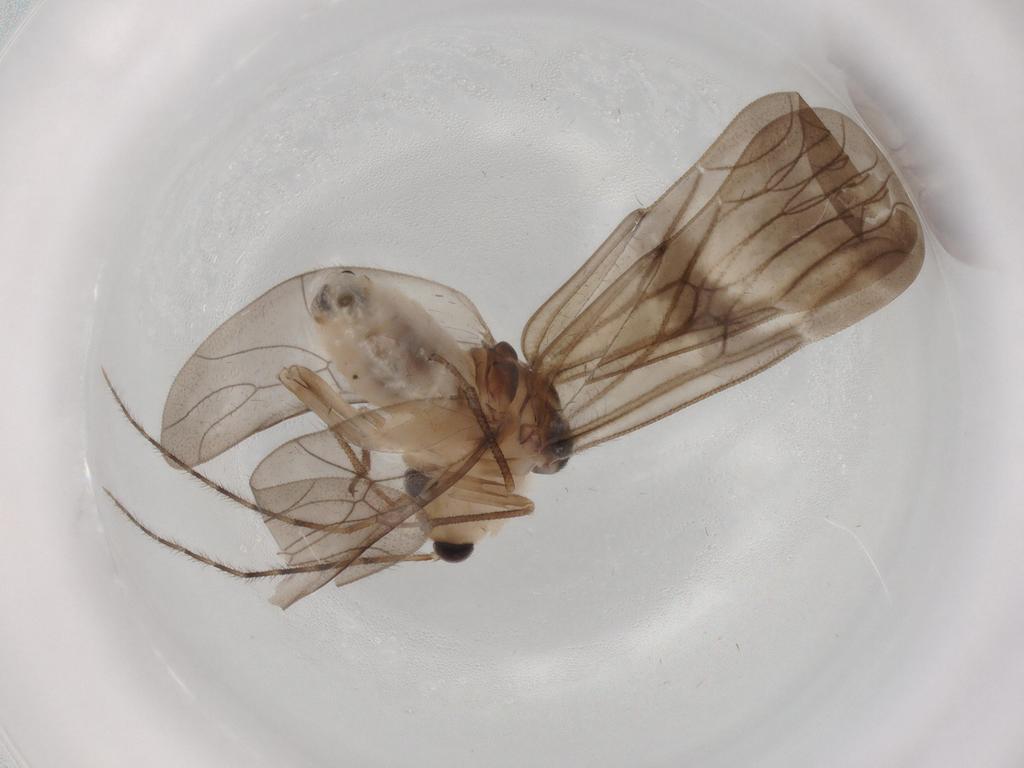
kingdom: Animalia
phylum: Arthropoda
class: Insecta
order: Psocodea
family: Amphipsocidae
